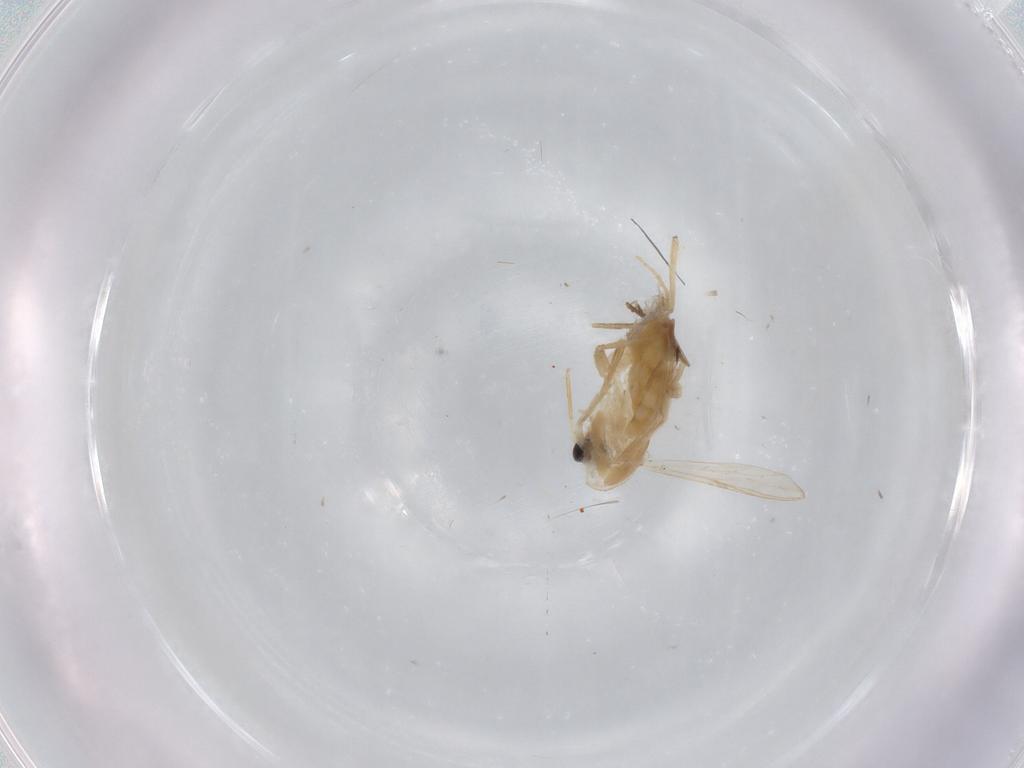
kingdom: Animalia
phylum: Arthropoda
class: Insecta
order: Diptera
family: Chironomidae
